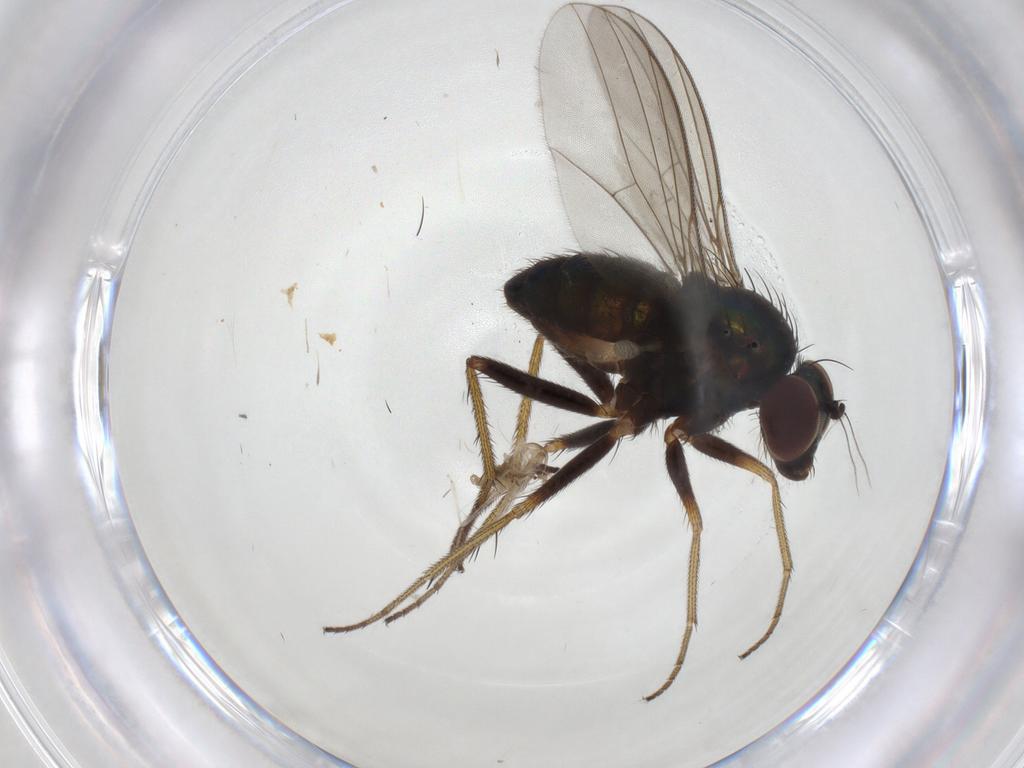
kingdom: Animalia
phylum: Arthropoda
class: Insecta
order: Diptera
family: Cecidomyiidae
